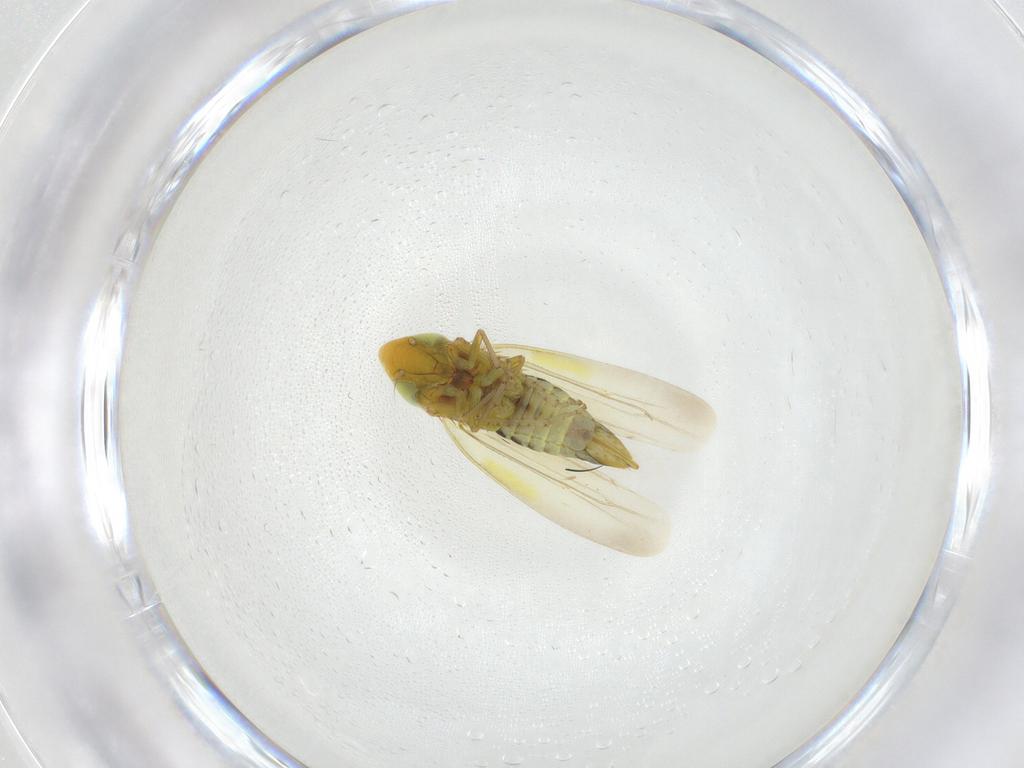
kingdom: Animalia
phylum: Arthropoda
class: Insecta
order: Hemiptera
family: Cicadellidae
